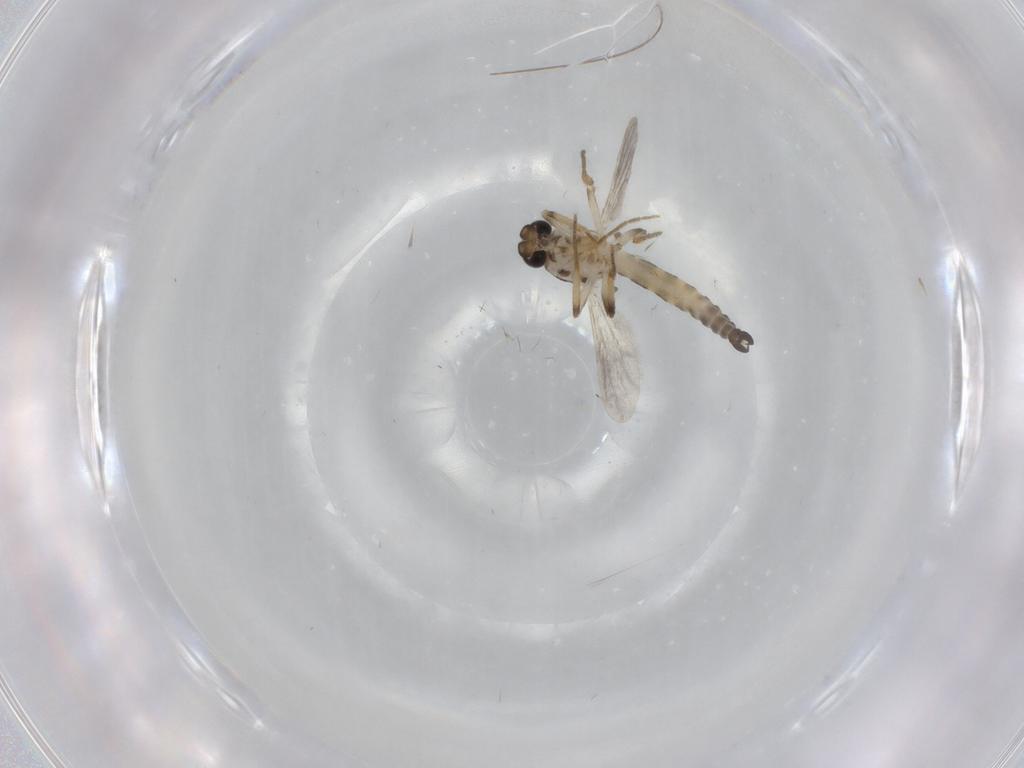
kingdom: Animalia
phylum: Arthropoda
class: Insecta
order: Diptera
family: Ceratopogonidae
